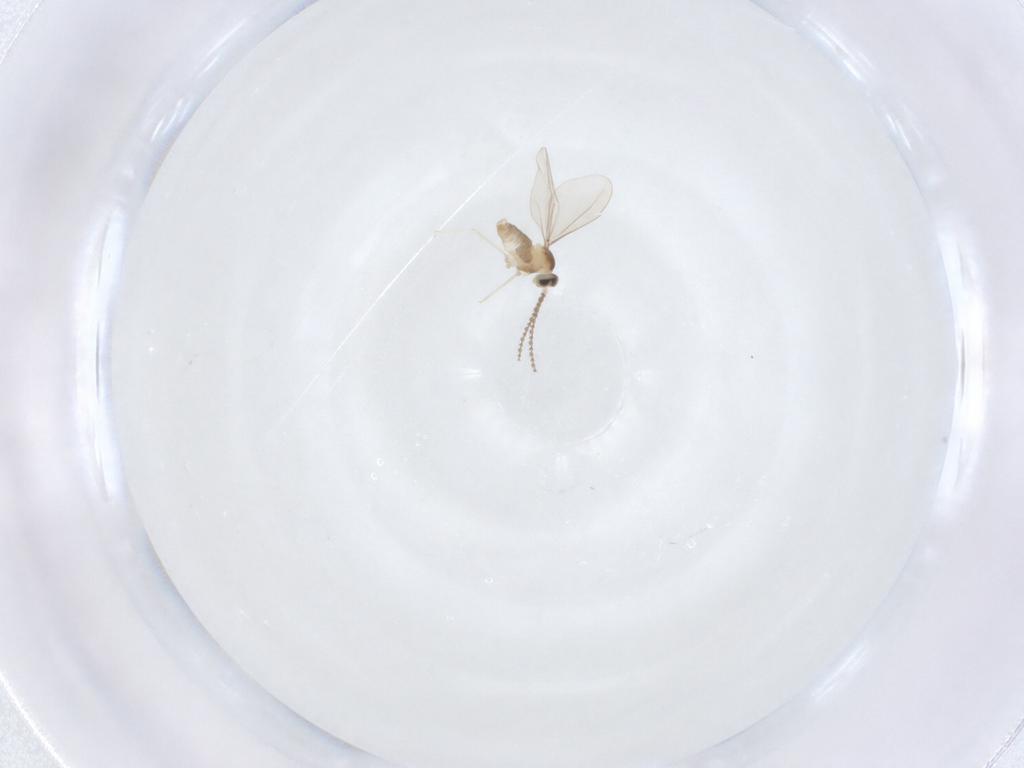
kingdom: Animalia
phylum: Arthropoda
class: Insecta
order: Diptera
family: Cecidomyiidae
